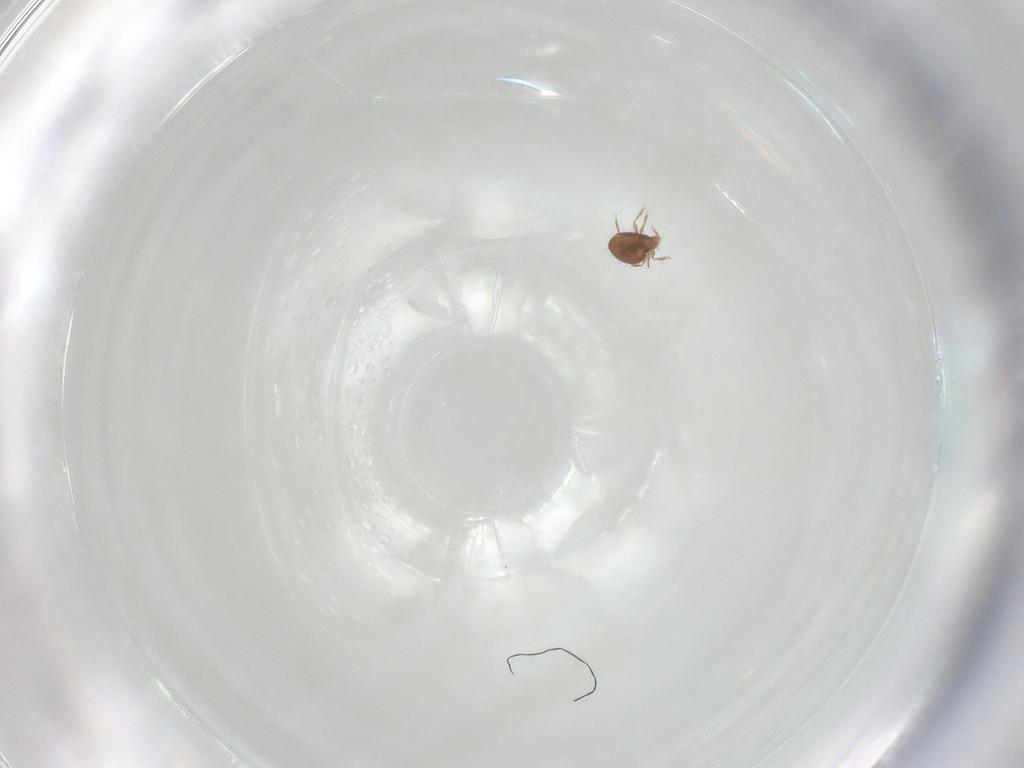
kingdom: Animalia
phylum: Arthropoda
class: Arachnida
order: Sarcoptiformes
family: Oribatulidae
